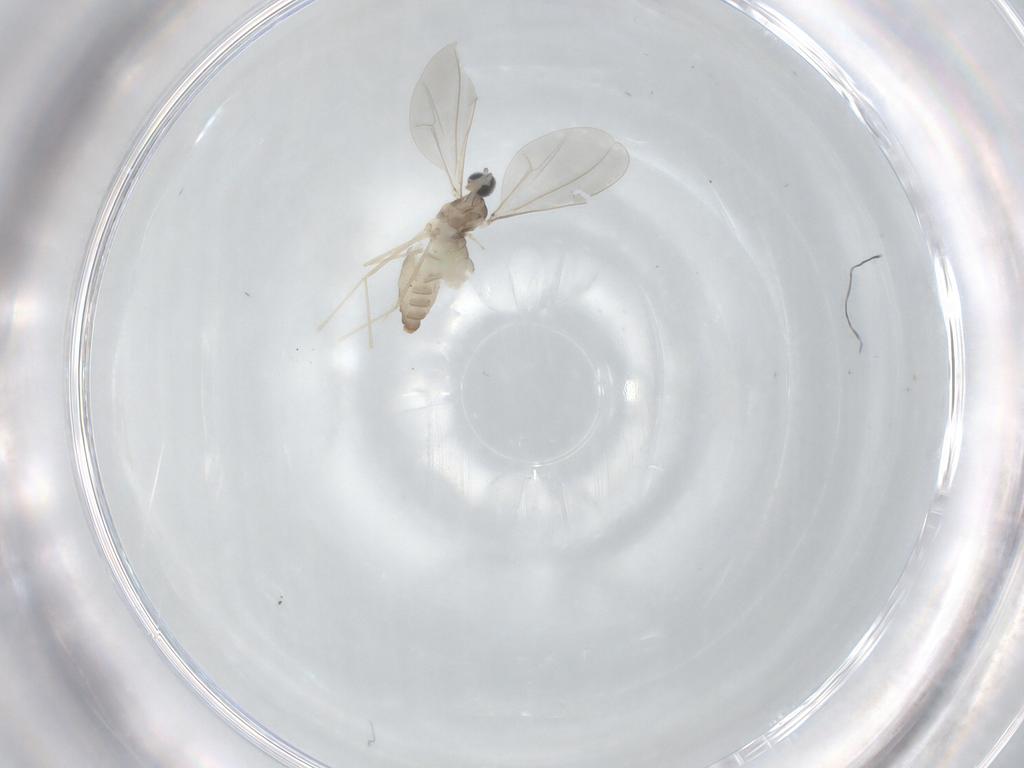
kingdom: Animalia
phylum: Arthropoda
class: Insecta
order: Diptera
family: Cecidomyiidae
